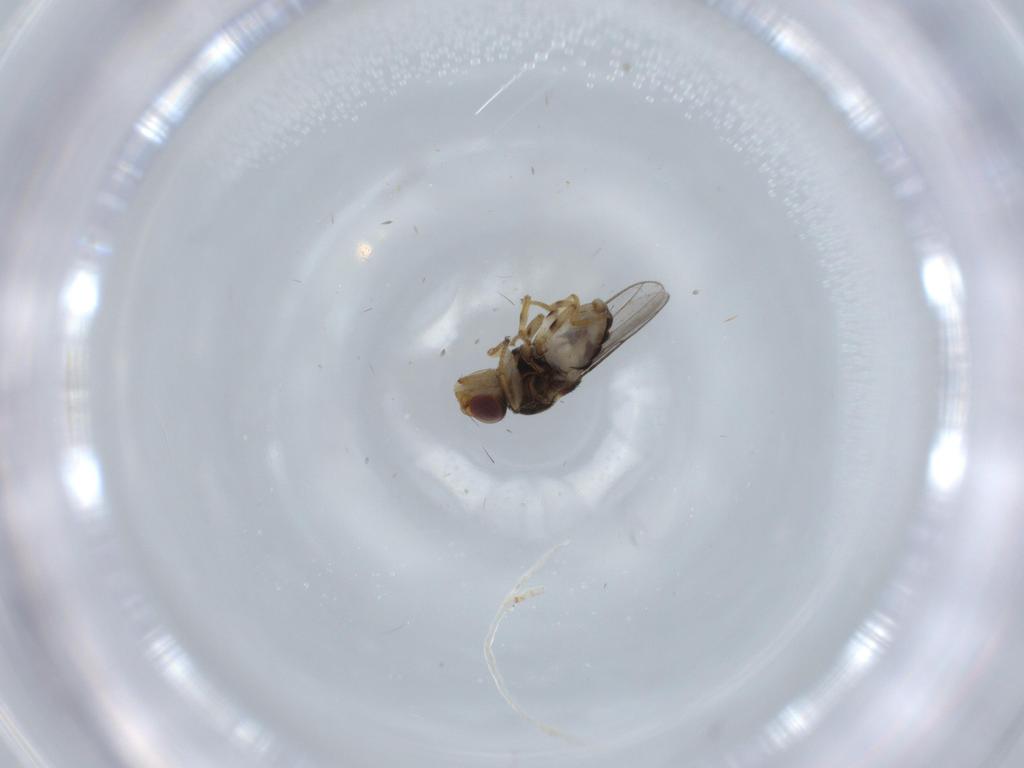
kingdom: Animalia
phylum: Arthropoda
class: Insecta
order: Diptera
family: Chloropidae
